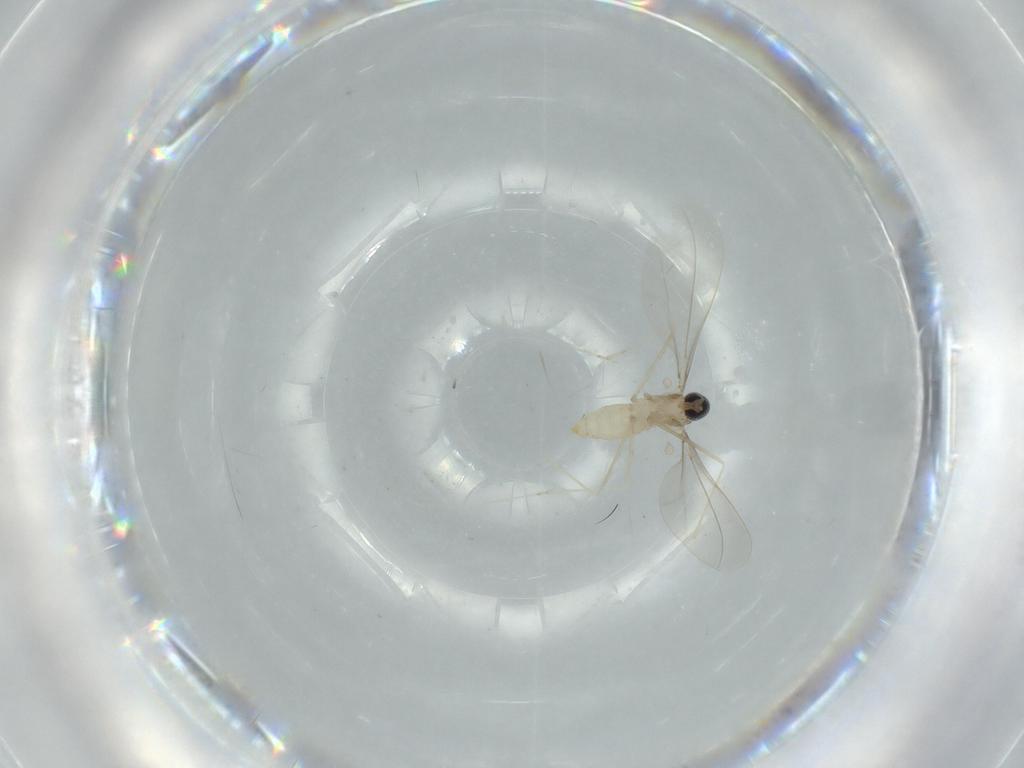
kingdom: Animalia
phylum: Arthropoda
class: Insecta
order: Diptera
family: Cecidomyiidae
